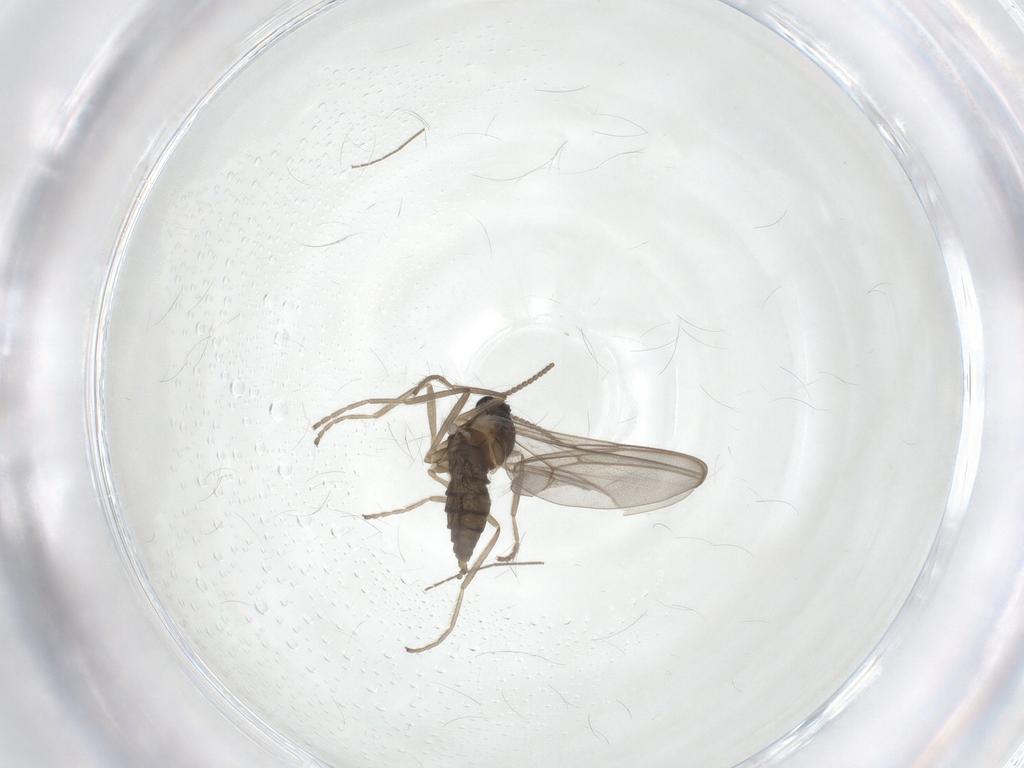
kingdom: Animalia
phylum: Arthropoda
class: Insecta
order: Diptera
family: Cecidomyiidae
